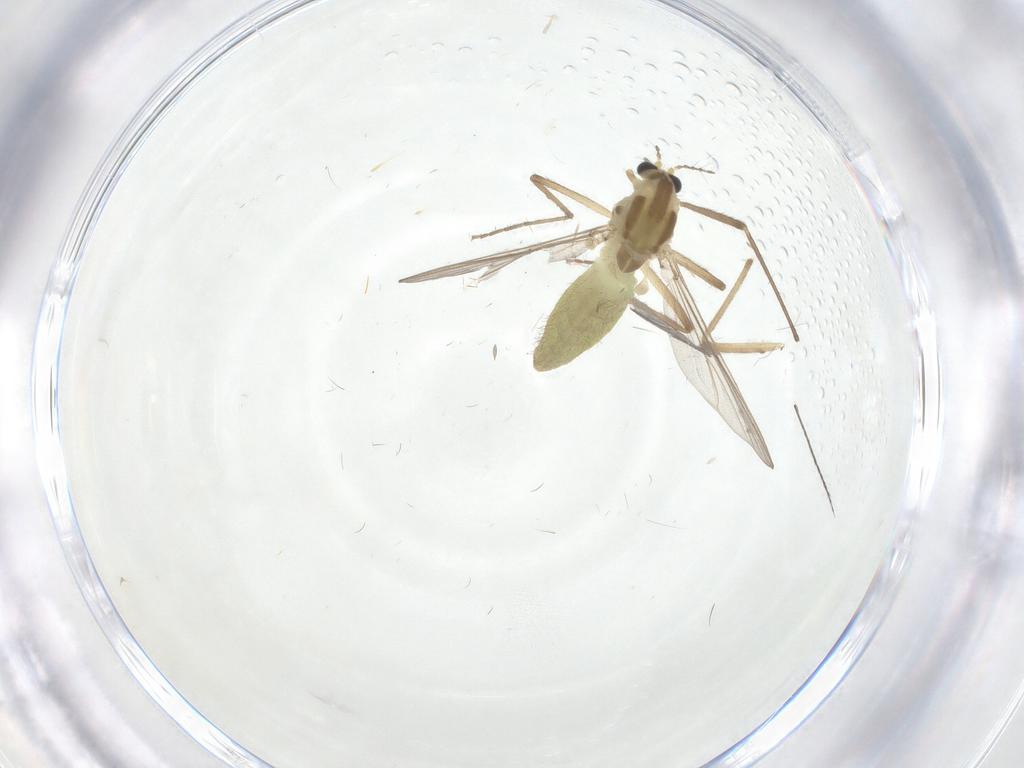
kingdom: Animalia
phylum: Arthropoda
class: Insecta
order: Diptera
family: Chironomidae
